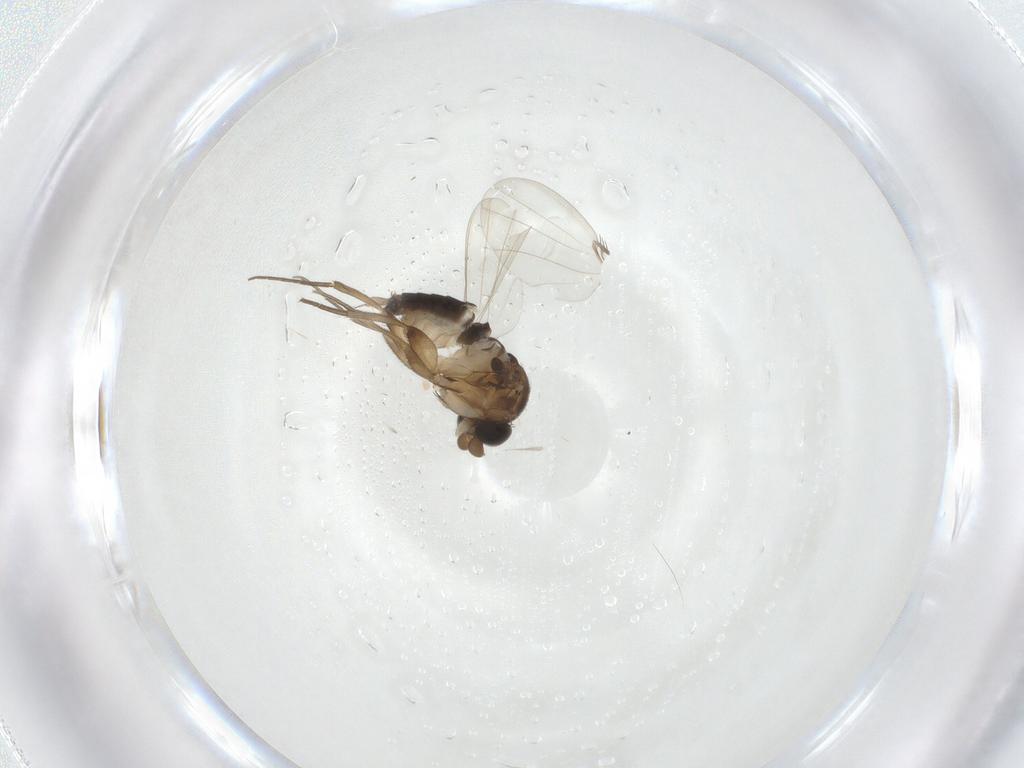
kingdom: Animalia
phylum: Arthropoda
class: Insecta
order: Diptera
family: Phoridae
